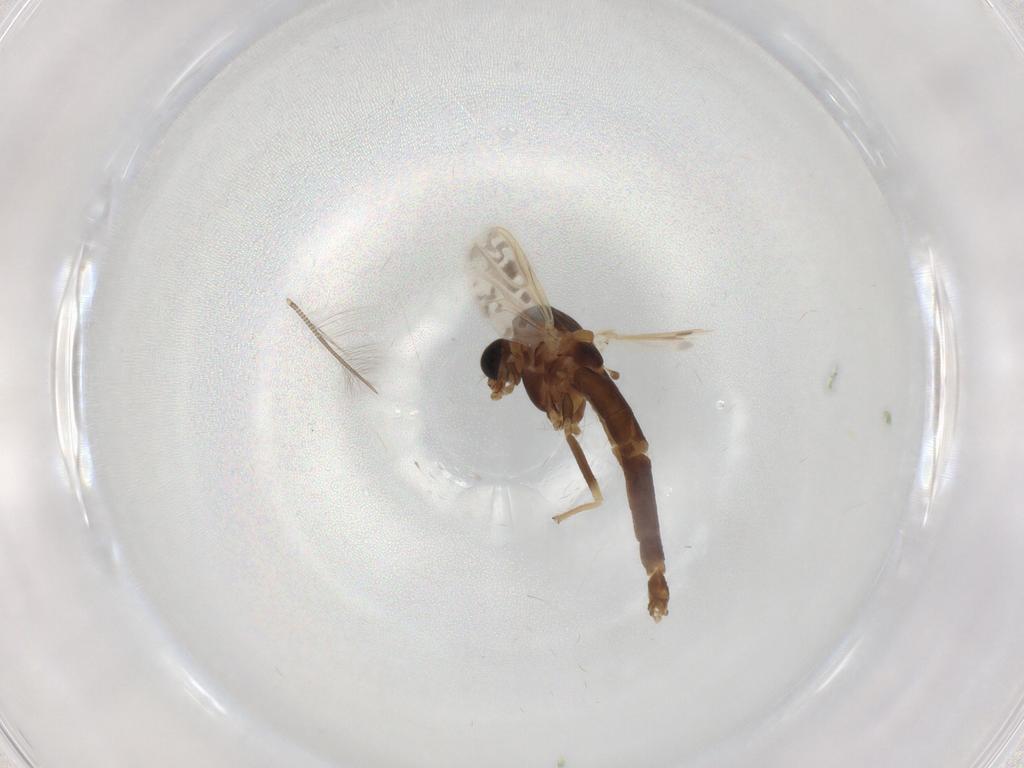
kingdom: Animalia
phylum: Arthropoda
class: Insecta
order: Diptera
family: Chironomidae
